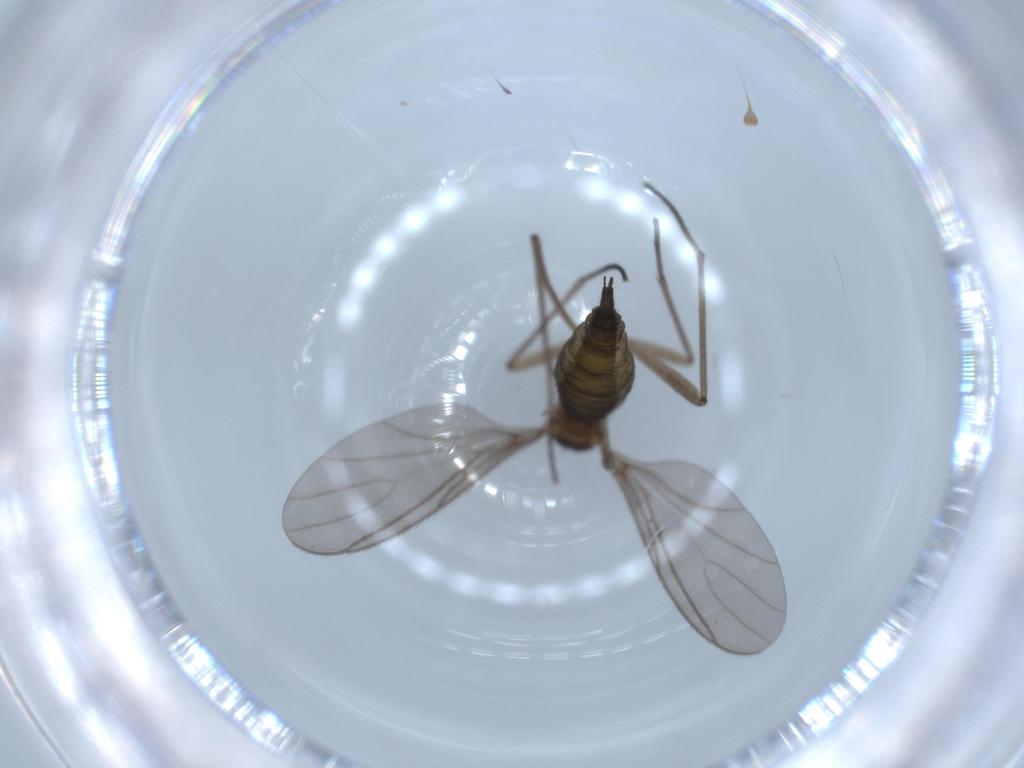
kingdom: Animalia
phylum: Arthropoda
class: Insecta
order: Diptera
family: Sciaridae
